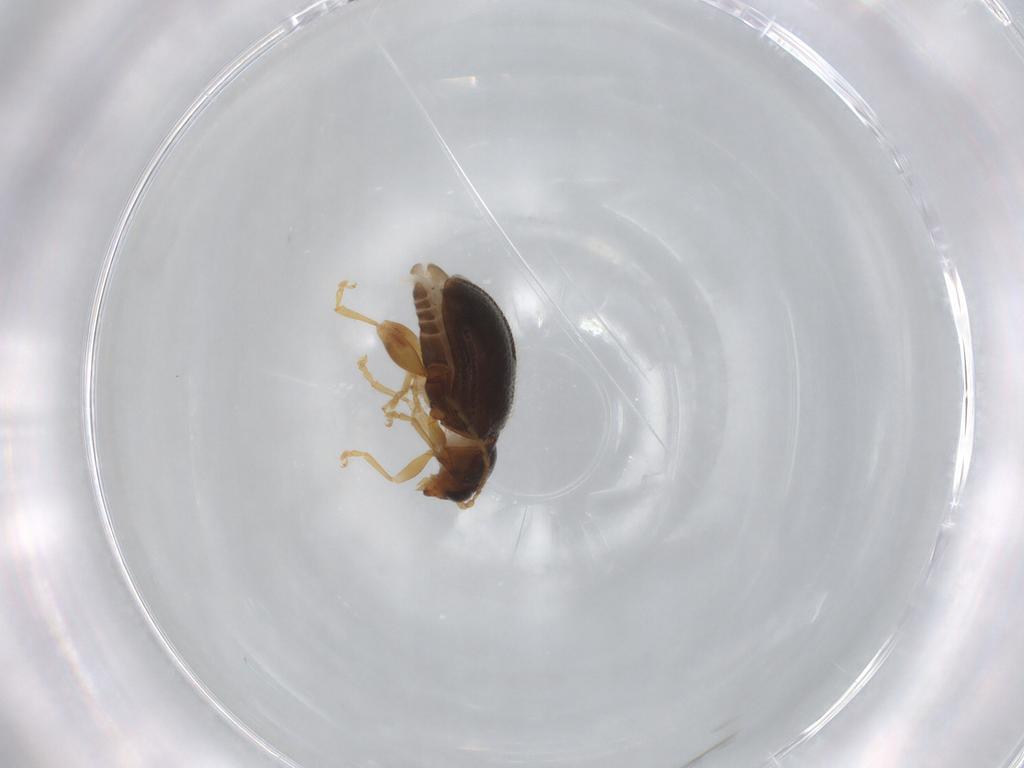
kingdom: Animalia
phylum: Arthropoda
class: Insecta
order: Coleoptera
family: Chrysomelidae
